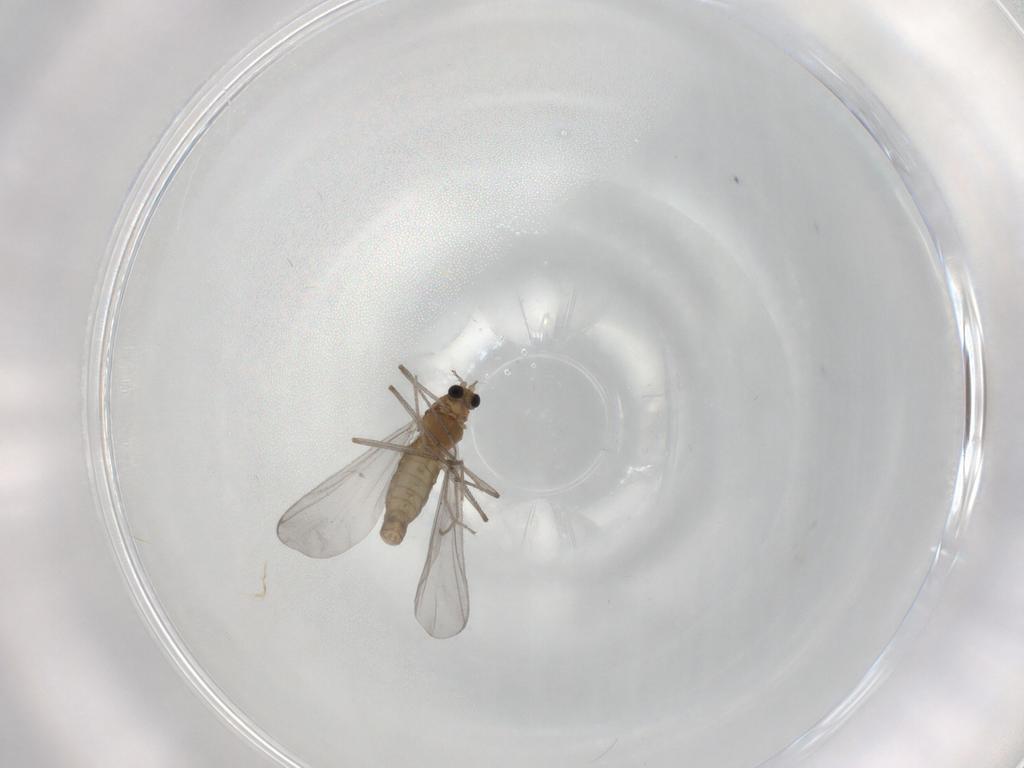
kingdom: Animalia
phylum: Arthropoda
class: Insecta
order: Diptera
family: Chironomidae
